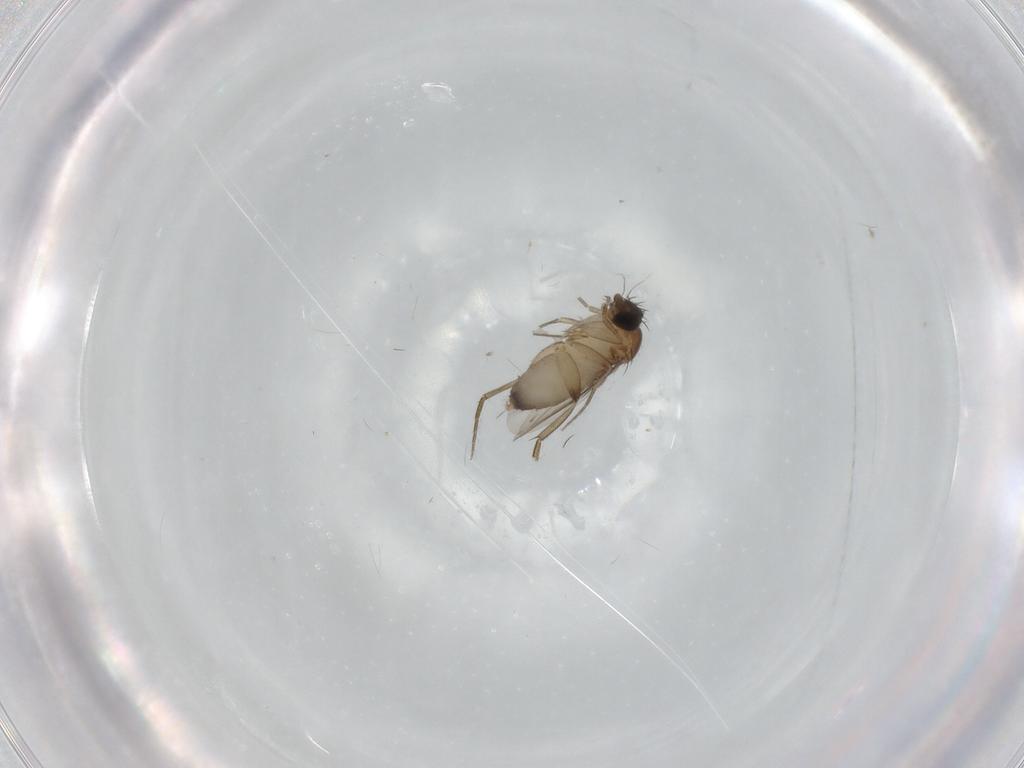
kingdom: Animalia
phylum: Arthropoda
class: Insecta
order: Diptera
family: Phoridae
